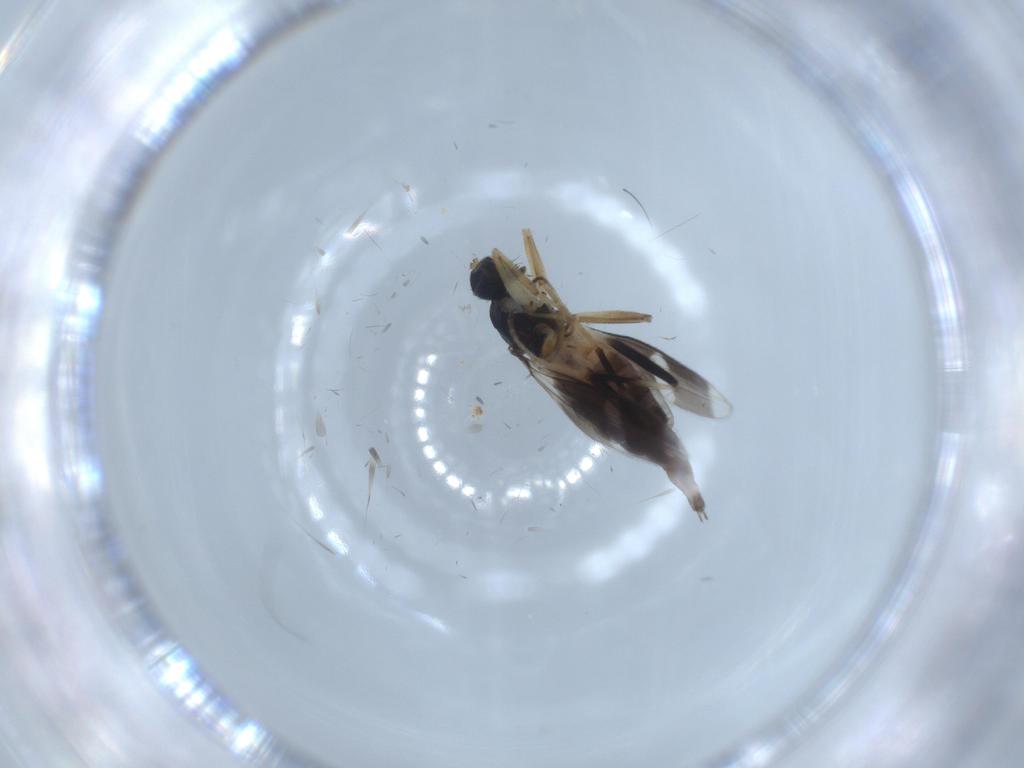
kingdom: Animalia
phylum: Arthropoda
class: Insecta
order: Diptera
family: Hybotidae
